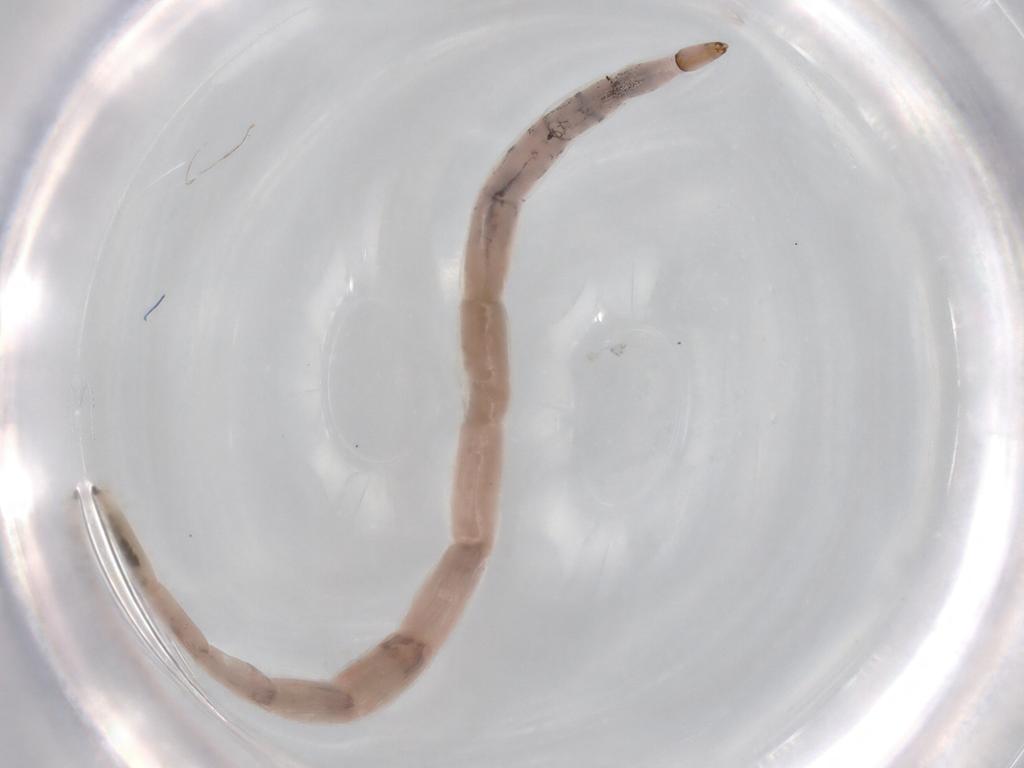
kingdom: Animalia
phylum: Arthropoda
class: Insecta
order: Diptera
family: Ceratopogonidae
